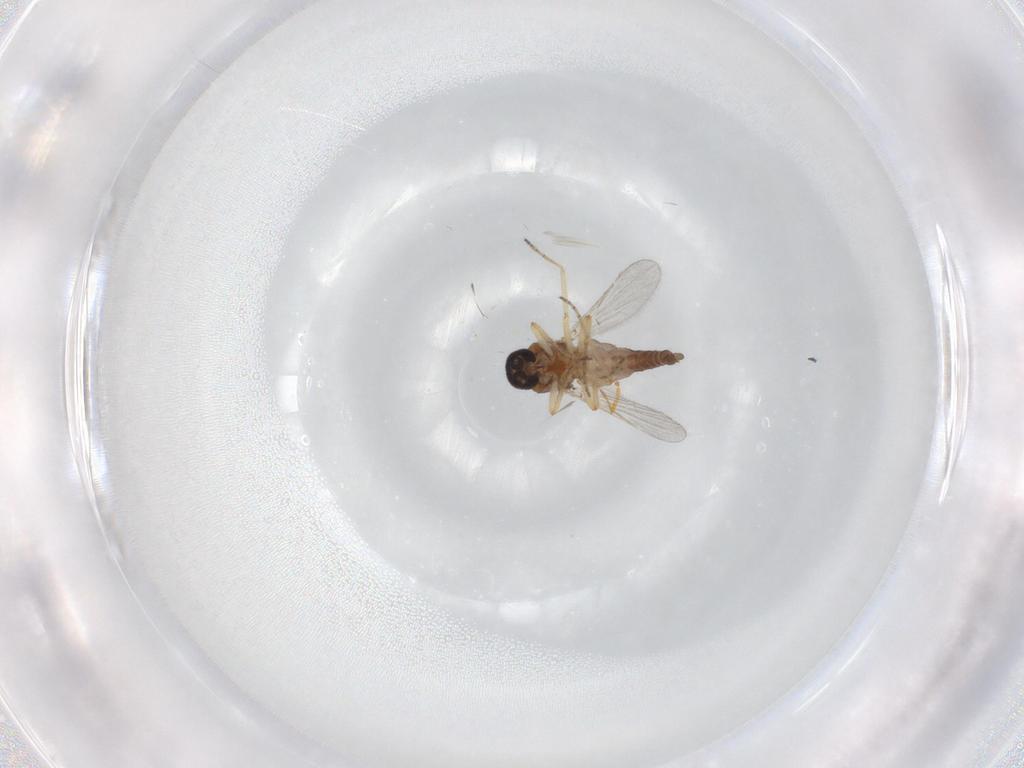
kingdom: Animalia
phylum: Arthropoda
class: Insecta
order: Diptera
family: Ceratopogonidae
